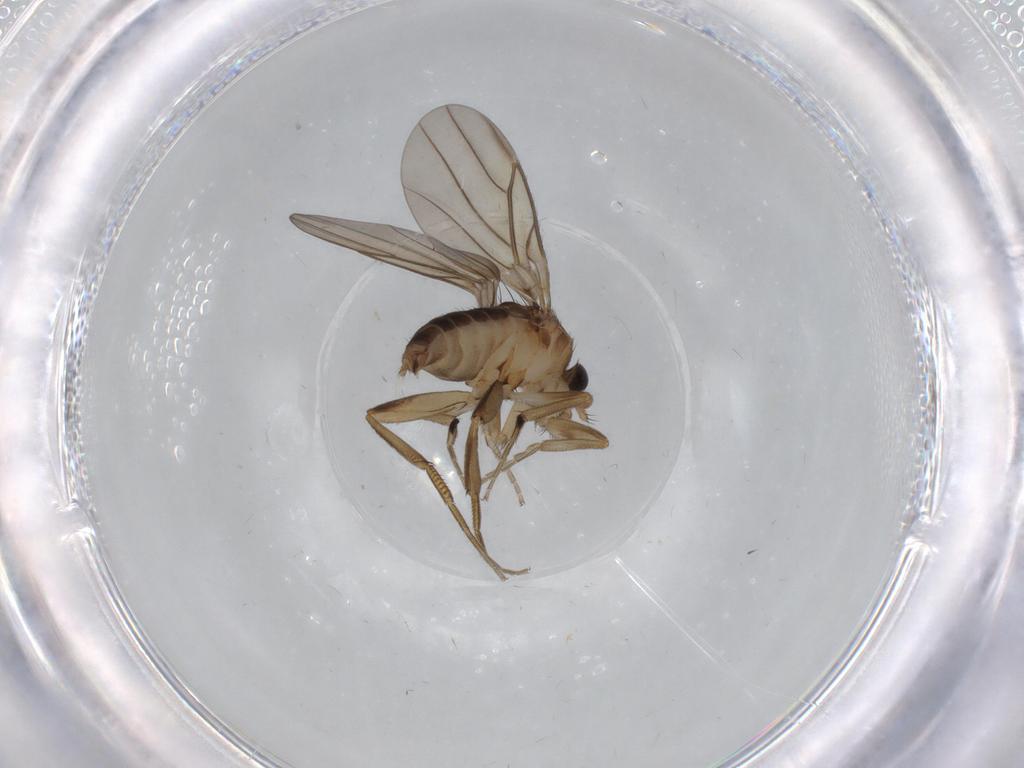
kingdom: Animalia
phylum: Arthropoda
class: Insecta
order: Diptera
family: Phoridae
